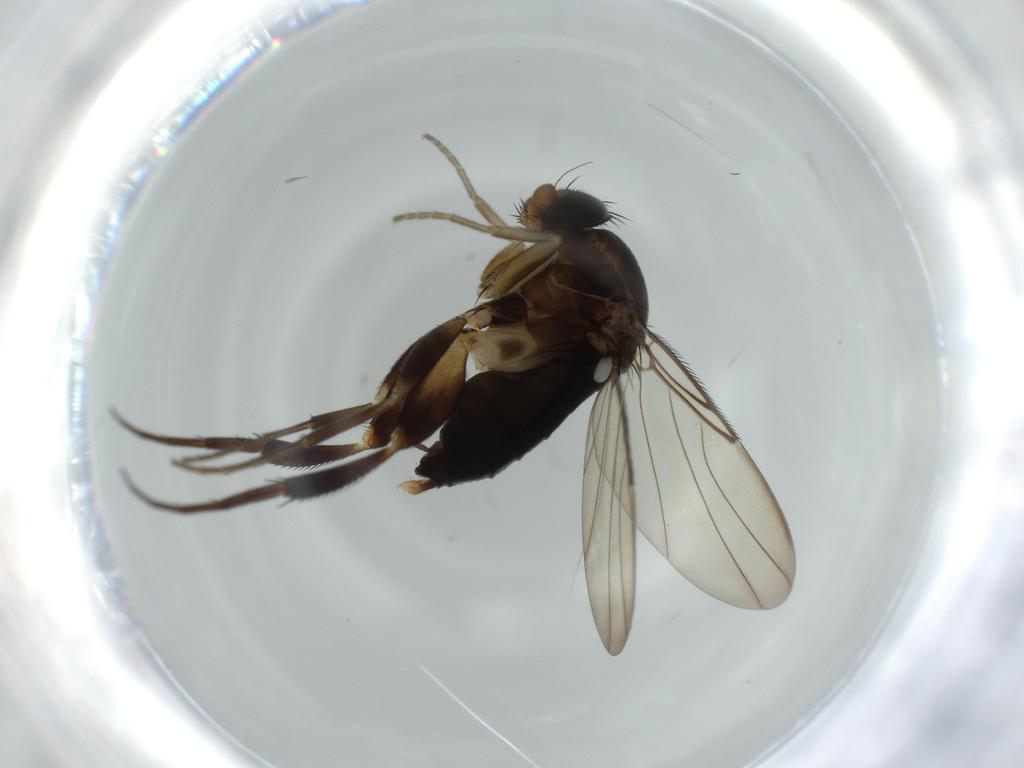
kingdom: Animalia
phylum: Arthropoda
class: Insecta
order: Diptera
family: Phoridae
